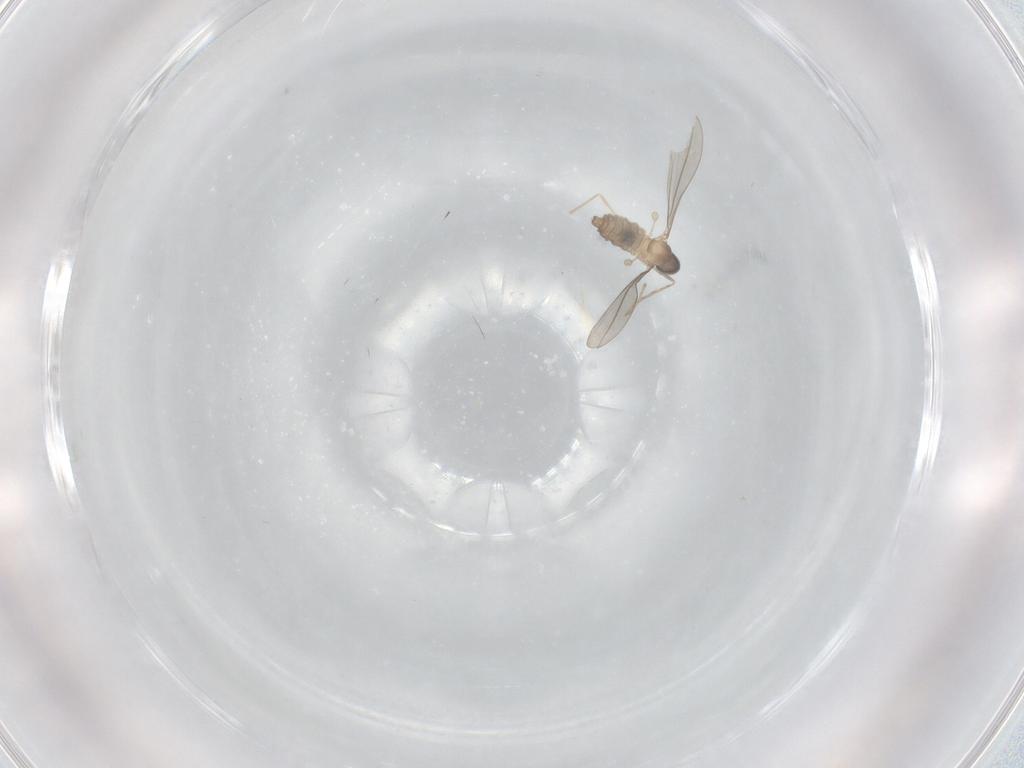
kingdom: Animalia
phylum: Arthropoda
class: Insecta
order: Diptera
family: Cecidomyiidae
